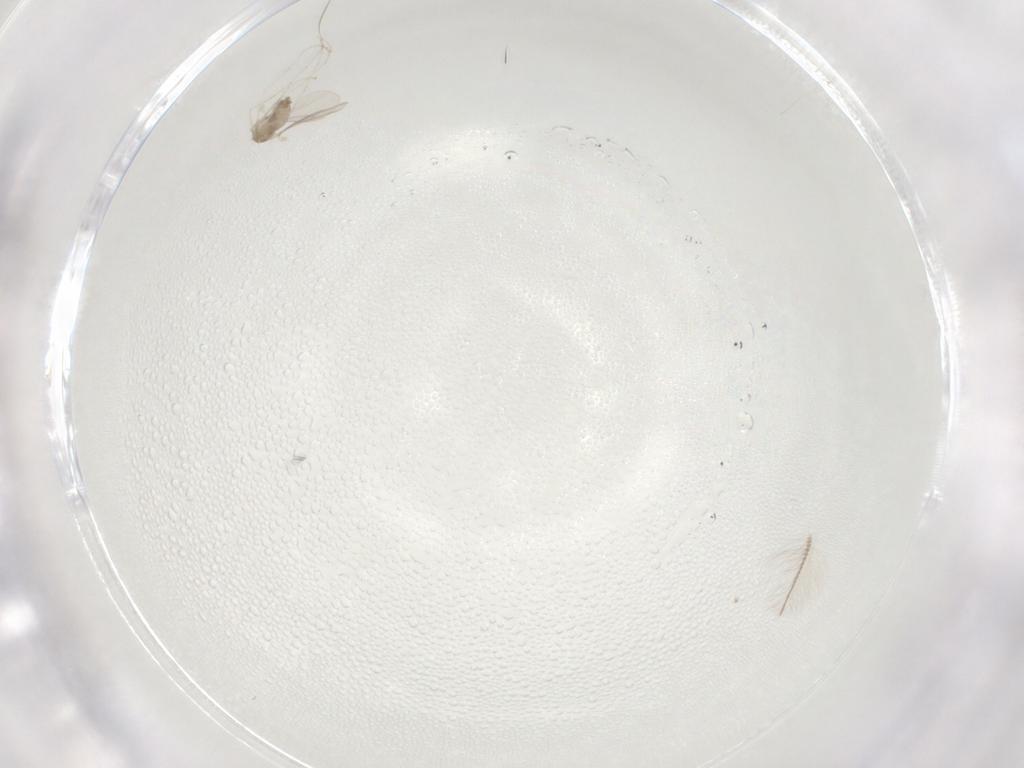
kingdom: Animalia
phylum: Arthropoda
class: Insecta
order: Diptera
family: Cecidomyiidae
